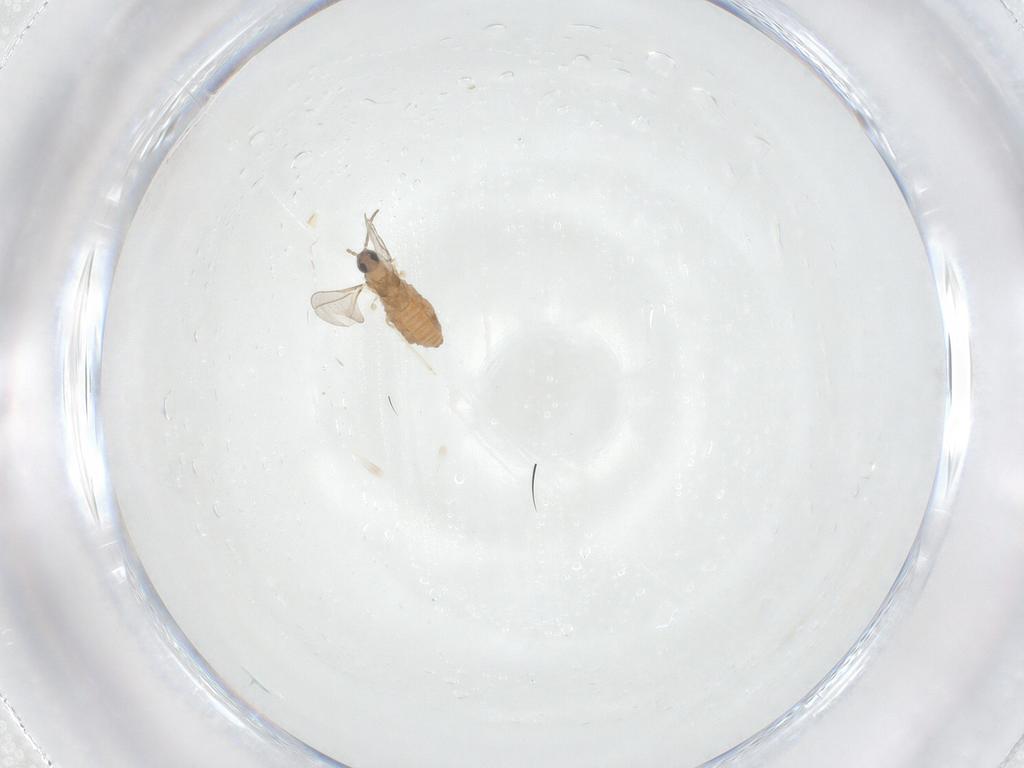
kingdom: Animalia
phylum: Arthropoda
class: Insecta
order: Diptera
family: Cecidomyiidae
